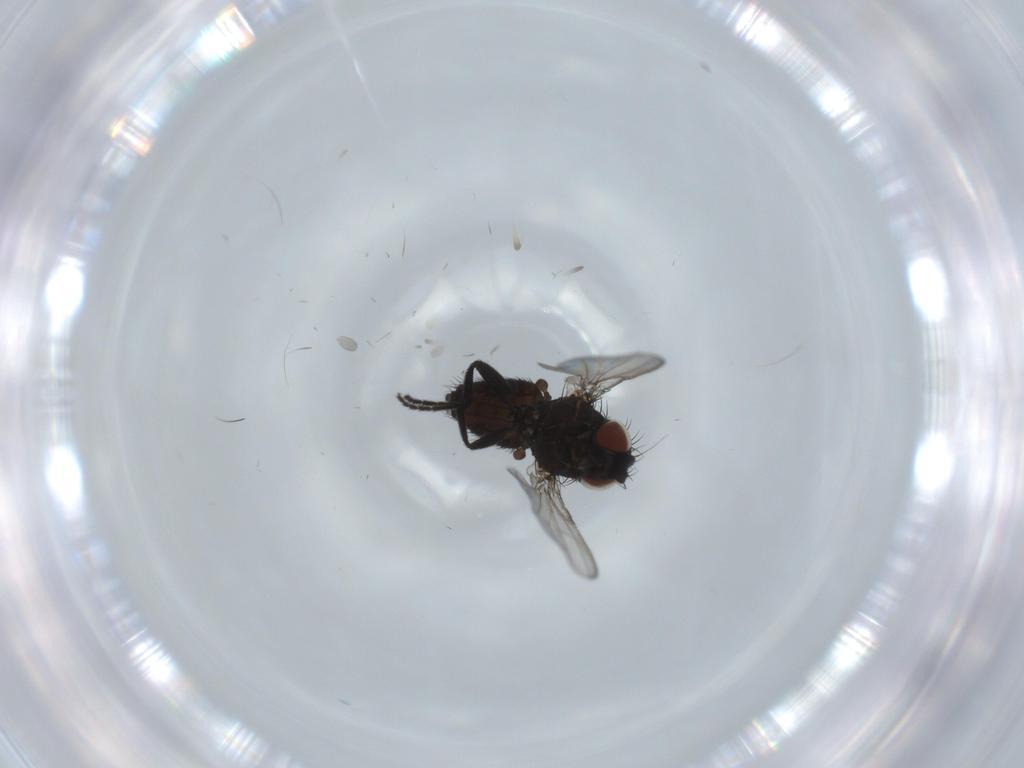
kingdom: Animalia
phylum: Arthropoda
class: Insecta
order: Diptera
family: Milichiidae
